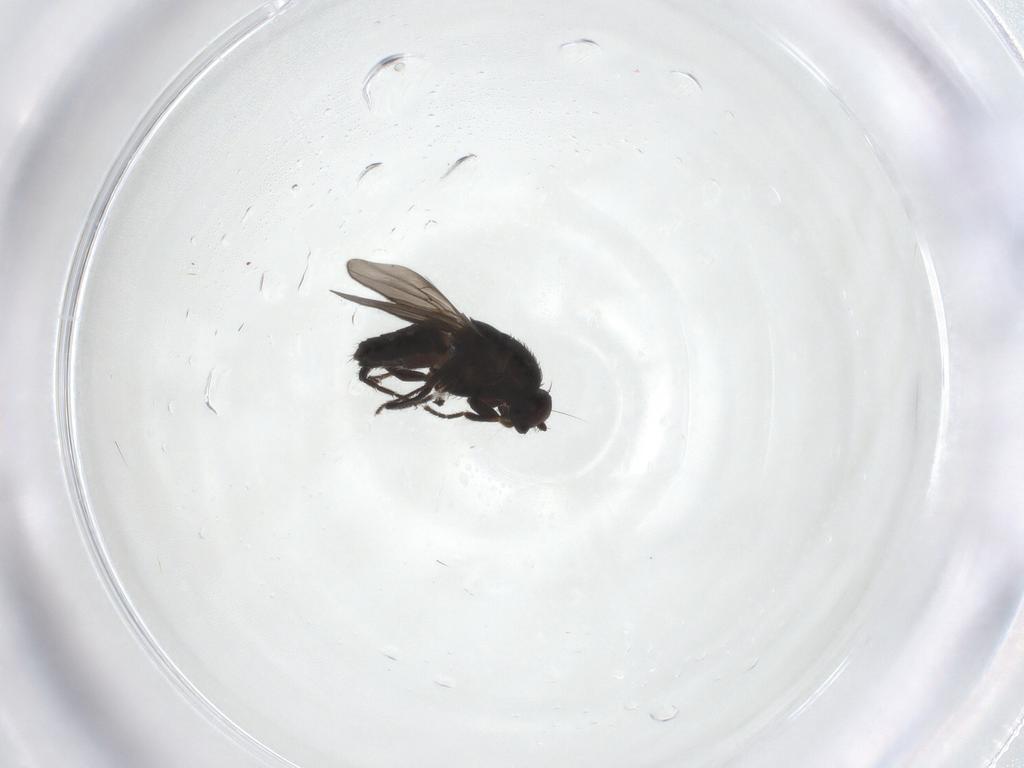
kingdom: Animalia
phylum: Arthropoda
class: Insecta
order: Diptera
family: Sphaeroceridae
